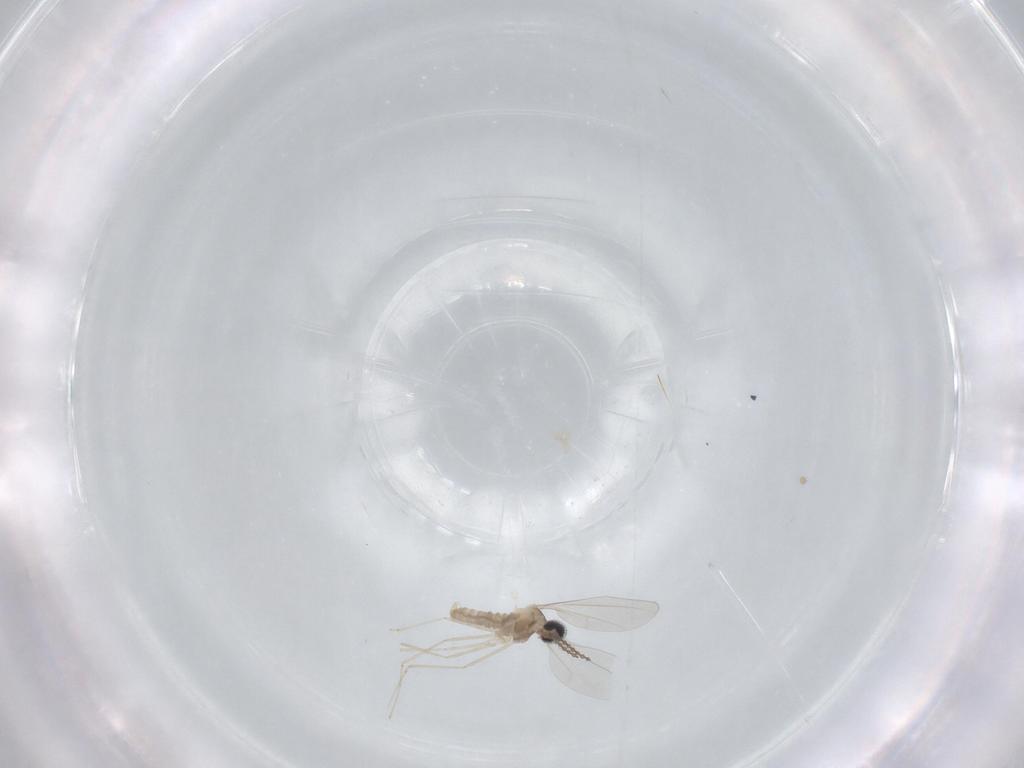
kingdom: Animalia
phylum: Arthropoda
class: Insecta
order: Diptera
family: Cecidomyiidae
